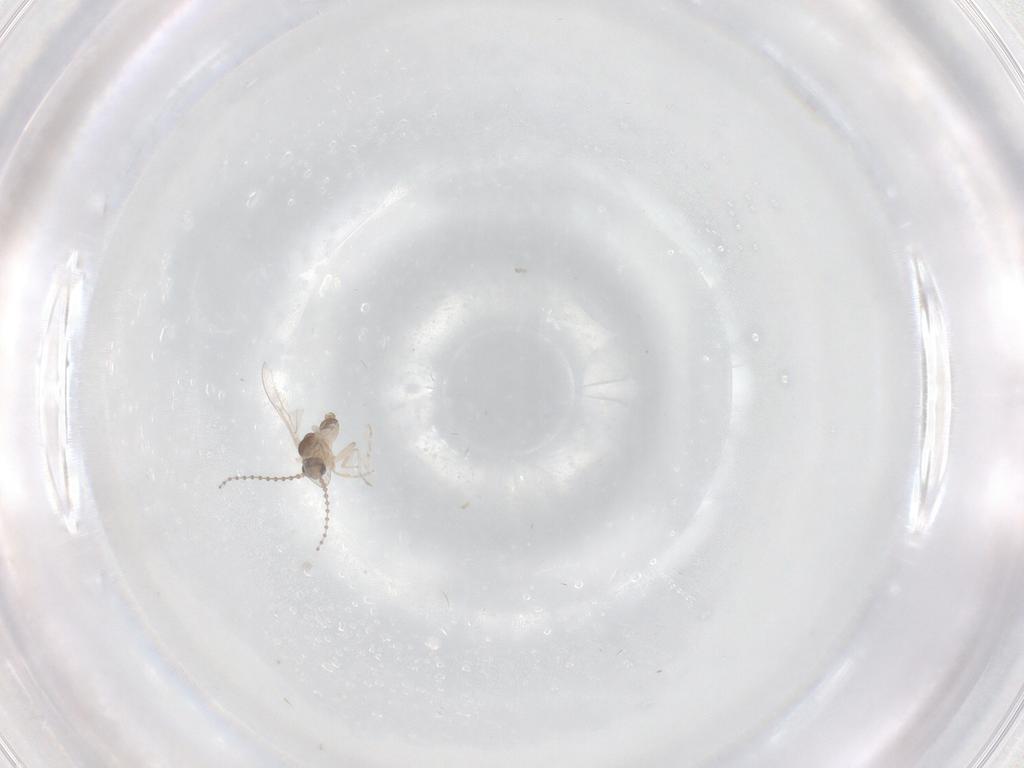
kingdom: Animalia
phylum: Arthropoda
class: Insecta
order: Diptera
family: Cecidomyiidae
